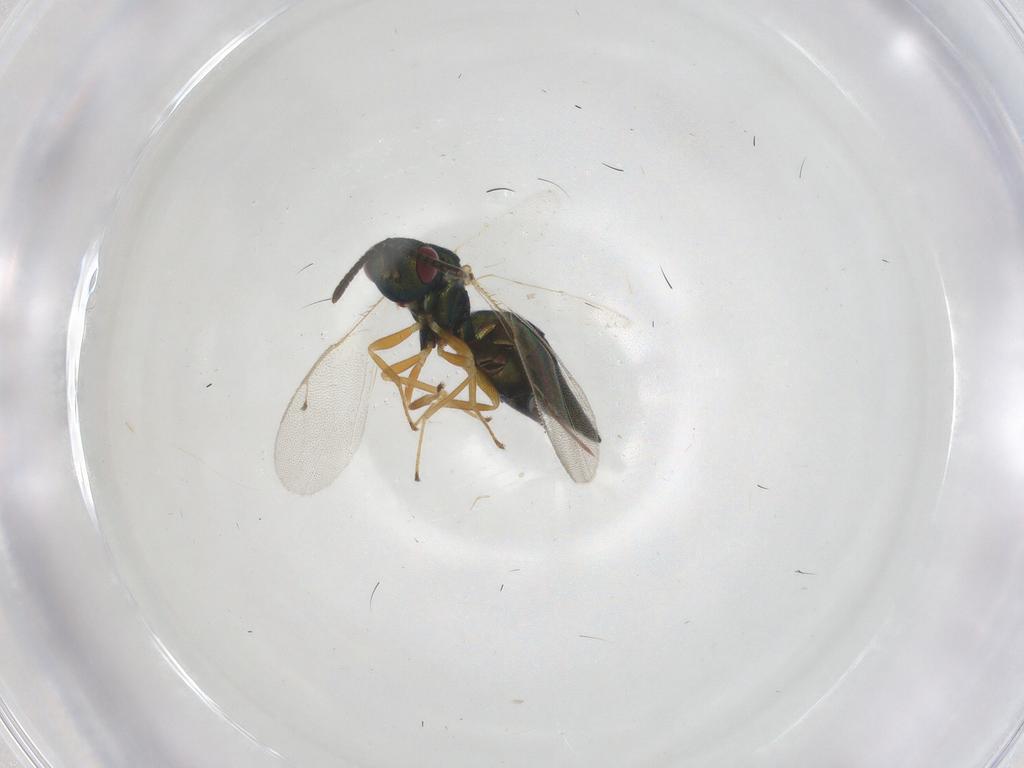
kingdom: Animalia
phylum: Arthropoda
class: Insecta
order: Hymenoptera
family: Pteromalidae
